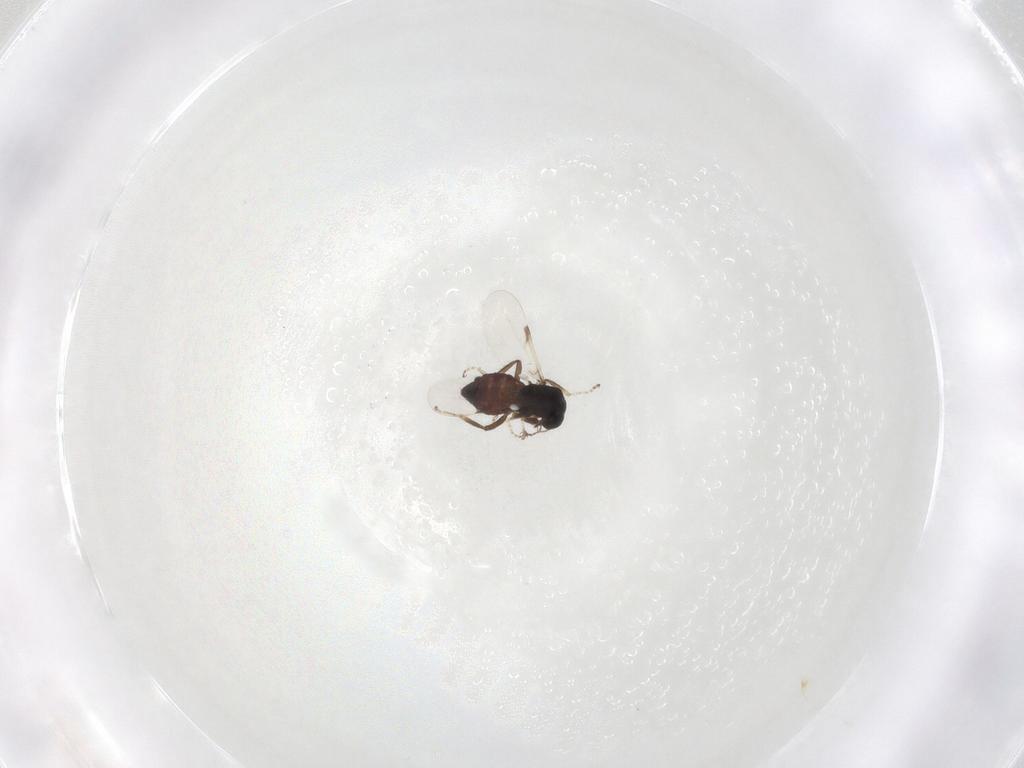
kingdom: Animalia
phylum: Arthropoda
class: Insecta
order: Diptera
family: Ceratopogonidae
